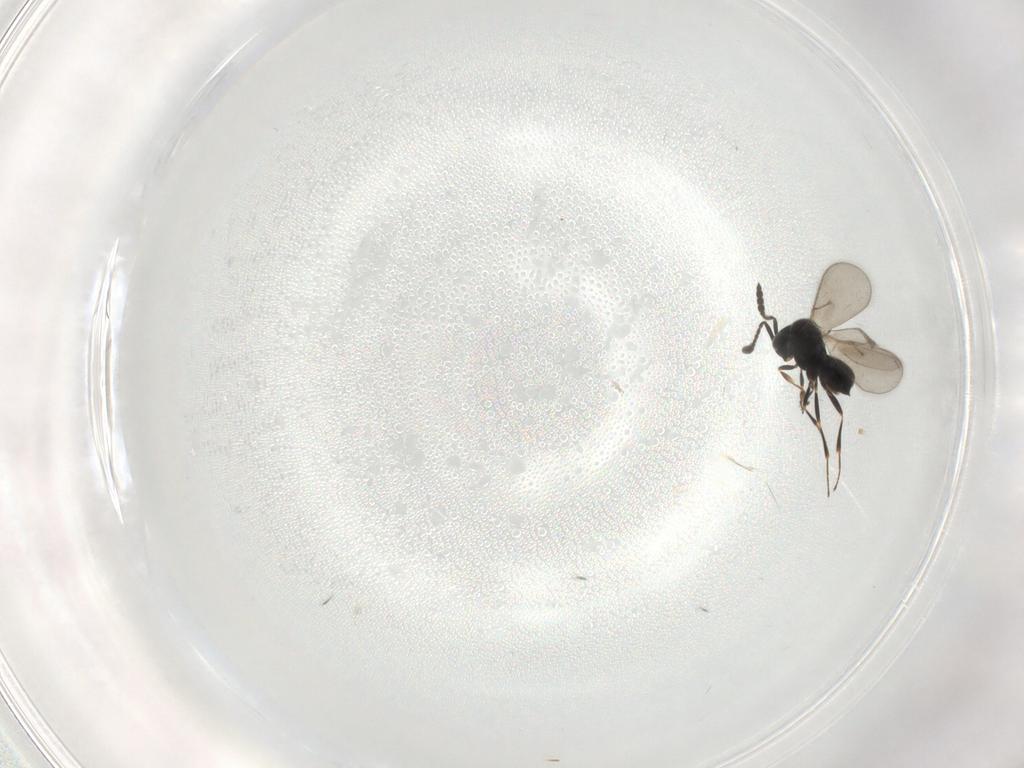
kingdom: Animalia
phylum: Arthropoda
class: Insecta
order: Hymenoptera
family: Scelionidae
